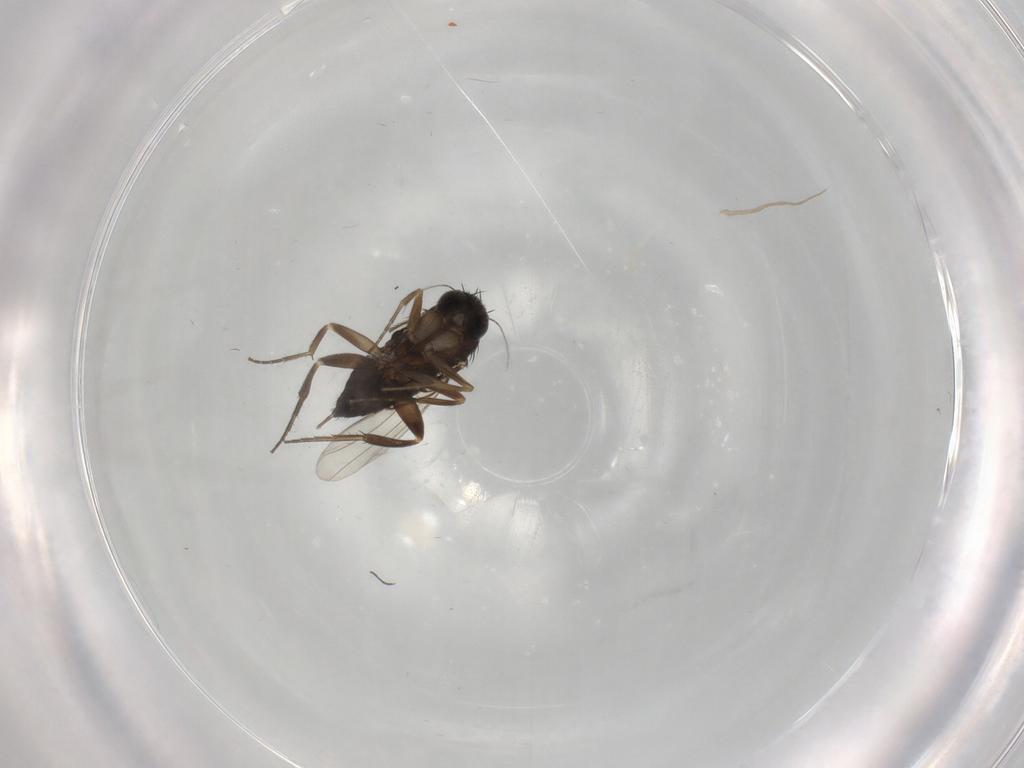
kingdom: Animalia
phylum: Arthropoda
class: Insecta
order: Diptera
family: Phoridae
